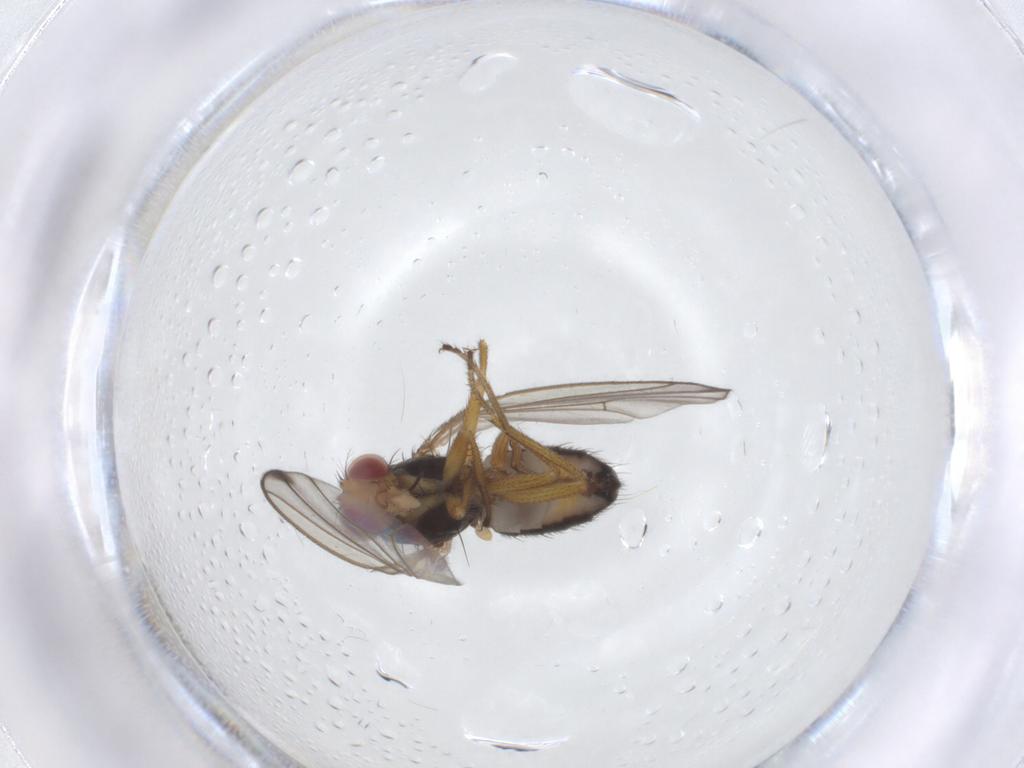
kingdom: Animalia
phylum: Arthropoda
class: Insecta
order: Diptera
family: Drosophilidae
